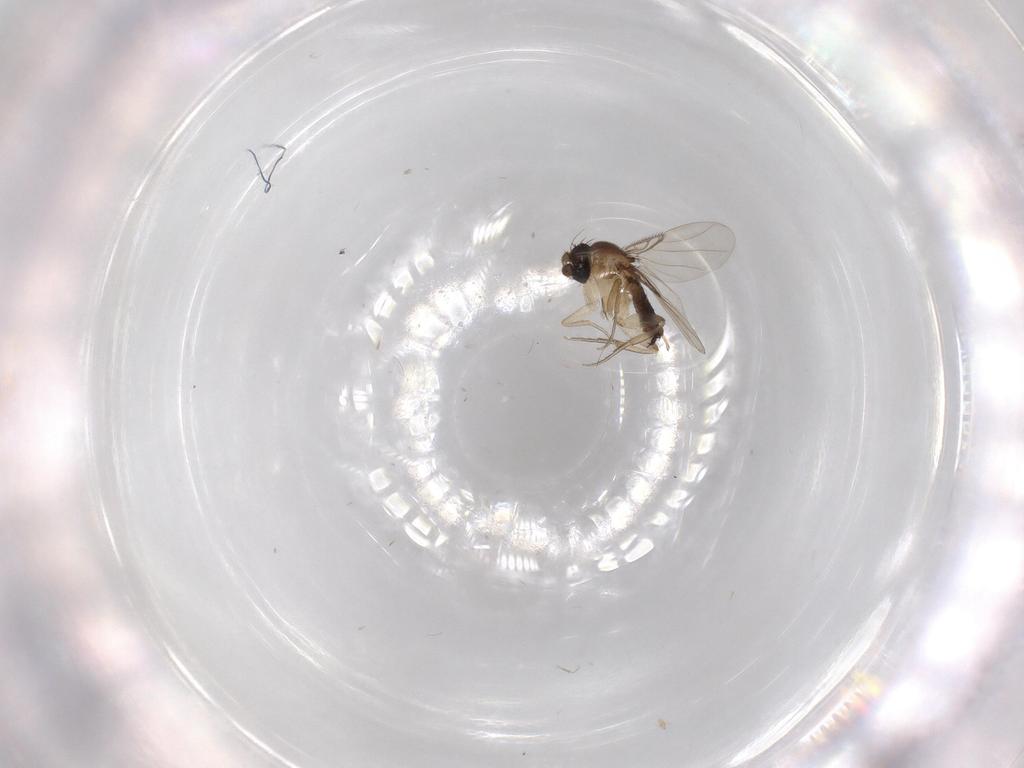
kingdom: Animalia
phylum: Arthropoda
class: Insecta
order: Diptera
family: Phoridae
